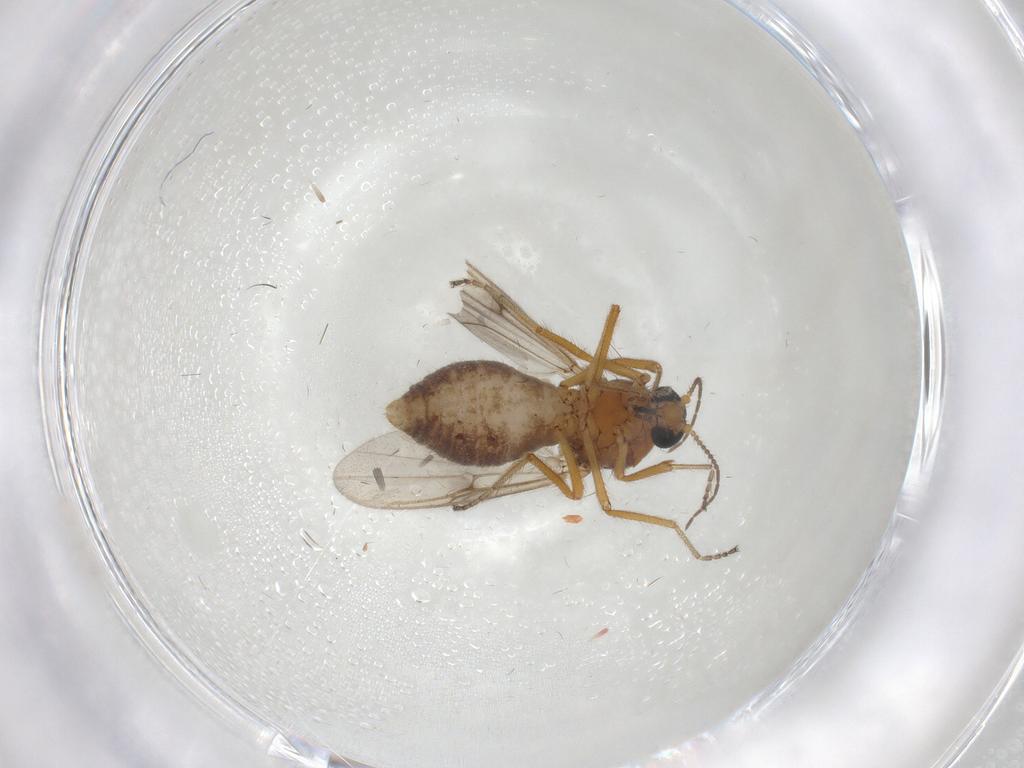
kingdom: Animalia
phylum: Arthropoda
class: Insecta
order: Diptera
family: Ceratopogonidae
